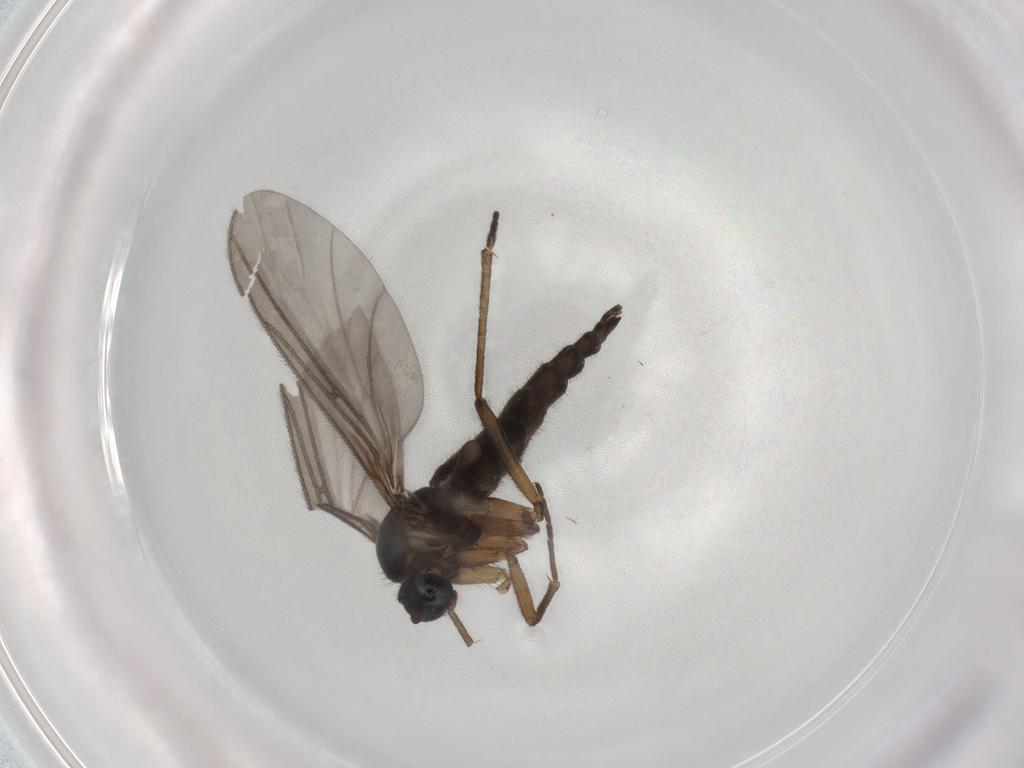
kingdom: Animalia
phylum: Arthropoda
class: Insecta
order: Diptera
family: Sciaridae
